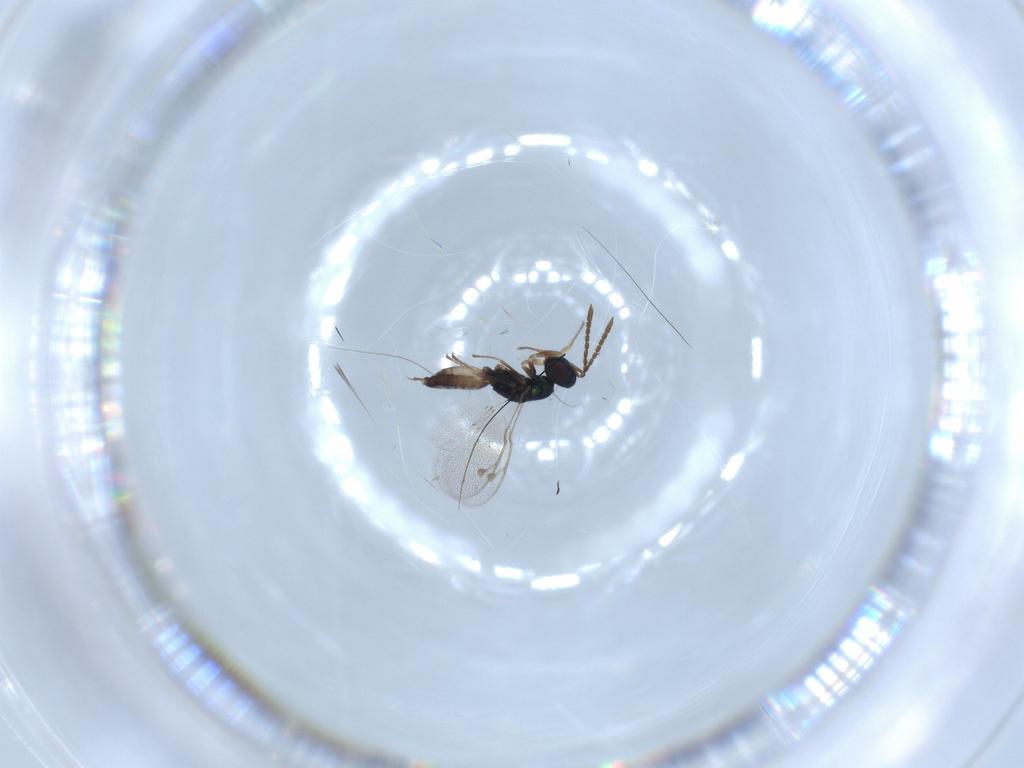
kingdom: Animalia
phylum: Arthropoda
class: Insecta
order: Hymenoptera
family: Pteromalidae
